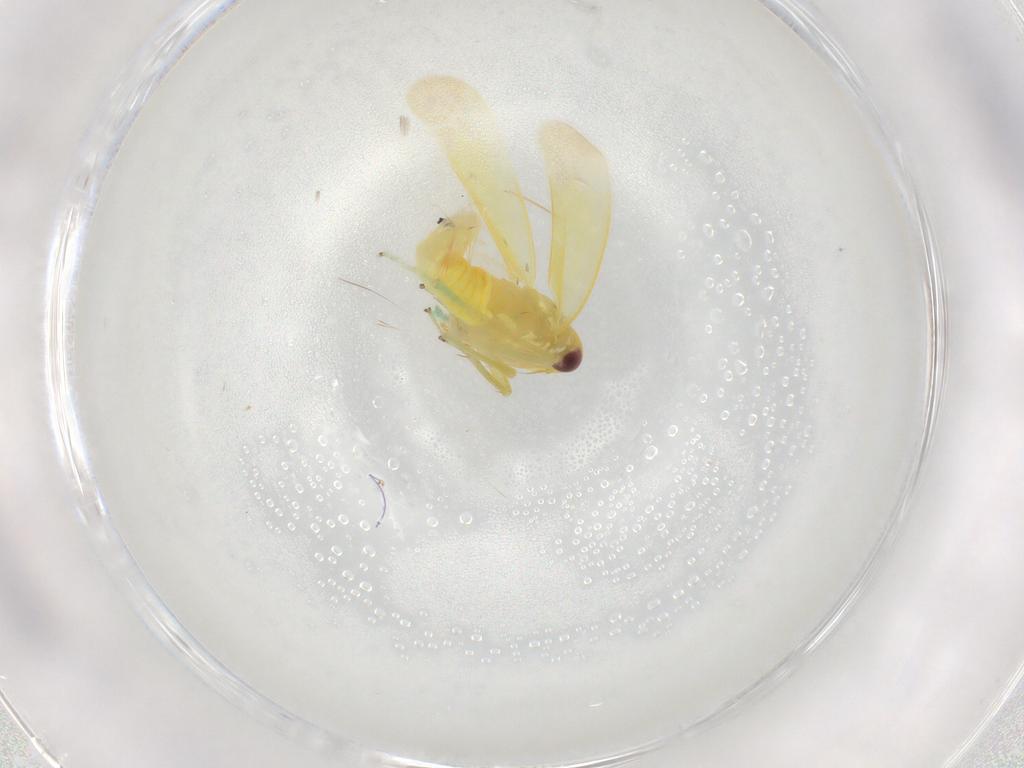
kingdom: Animalia
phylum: Arthropoda
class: Insecta
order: Hemiptera
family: Cicadellidae
